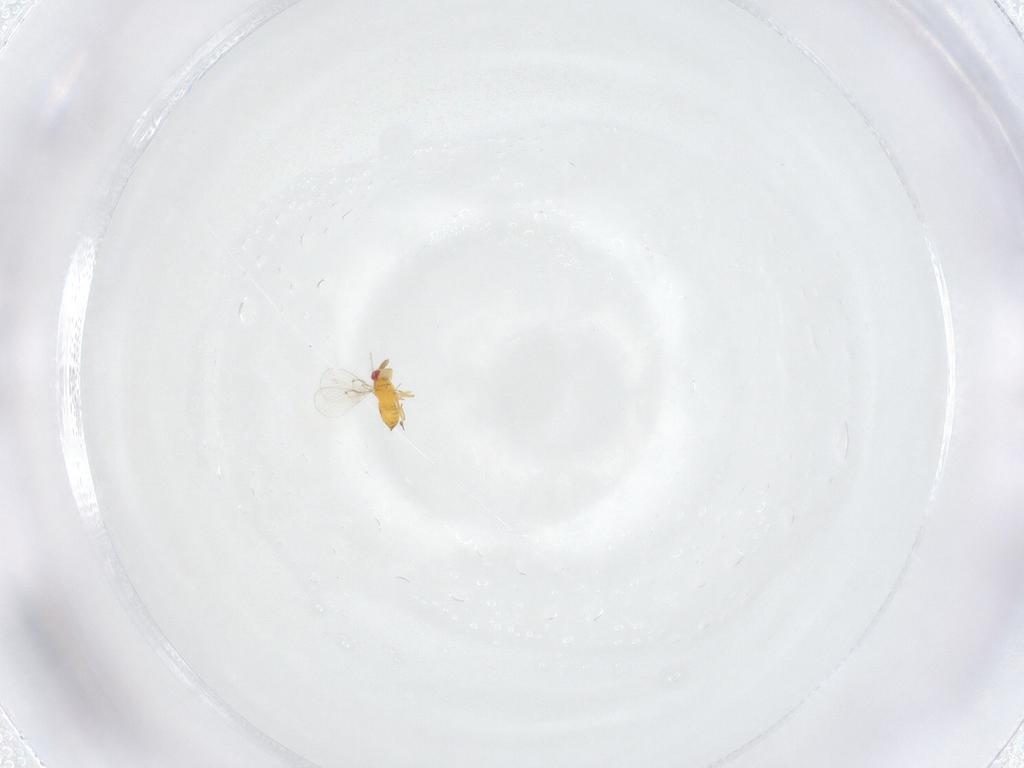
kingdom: Animalia
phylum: Arthropoda
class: Insecta
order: Hymenoptera
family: Trichogrammatidae
